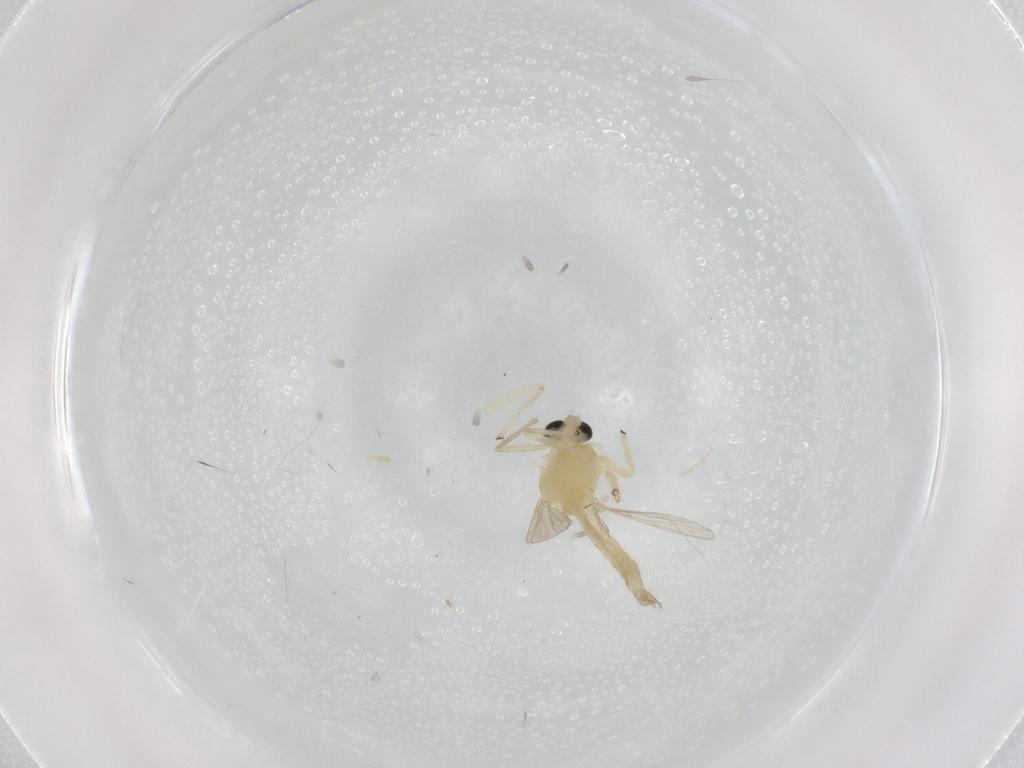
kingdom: Animalia
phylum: Arthropoda
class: Insecta
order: Diptera
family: Chironomidae
